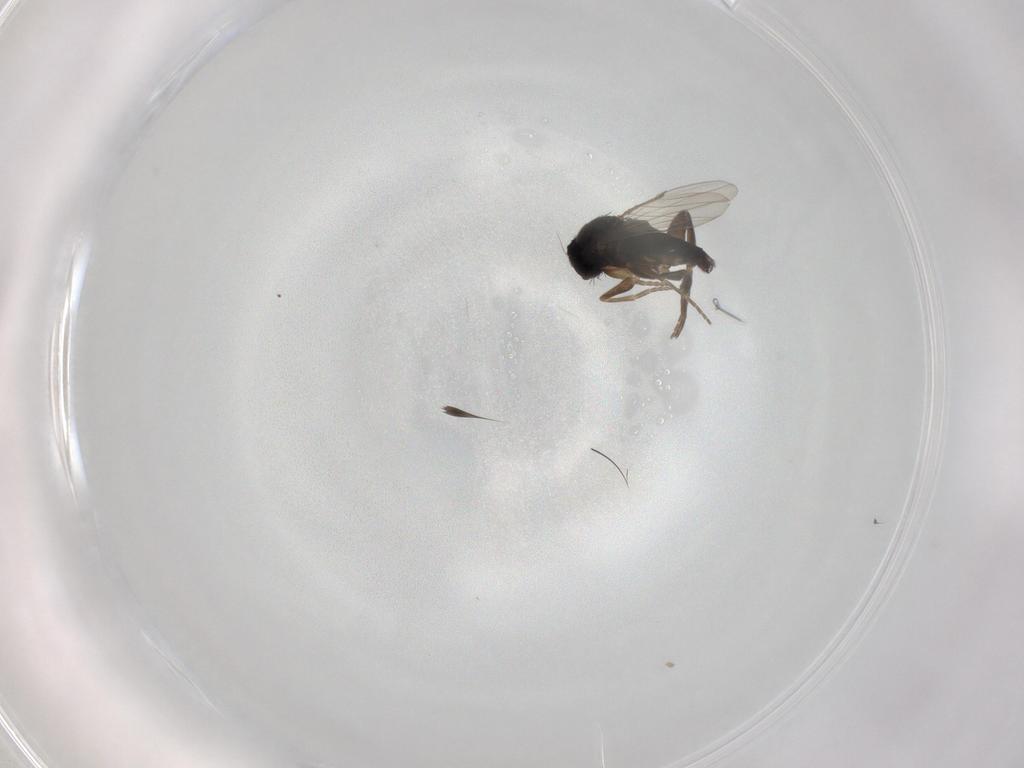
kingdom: Animalia
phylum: Arthropoda
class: Insecta
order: Diptera
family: Phoridae
